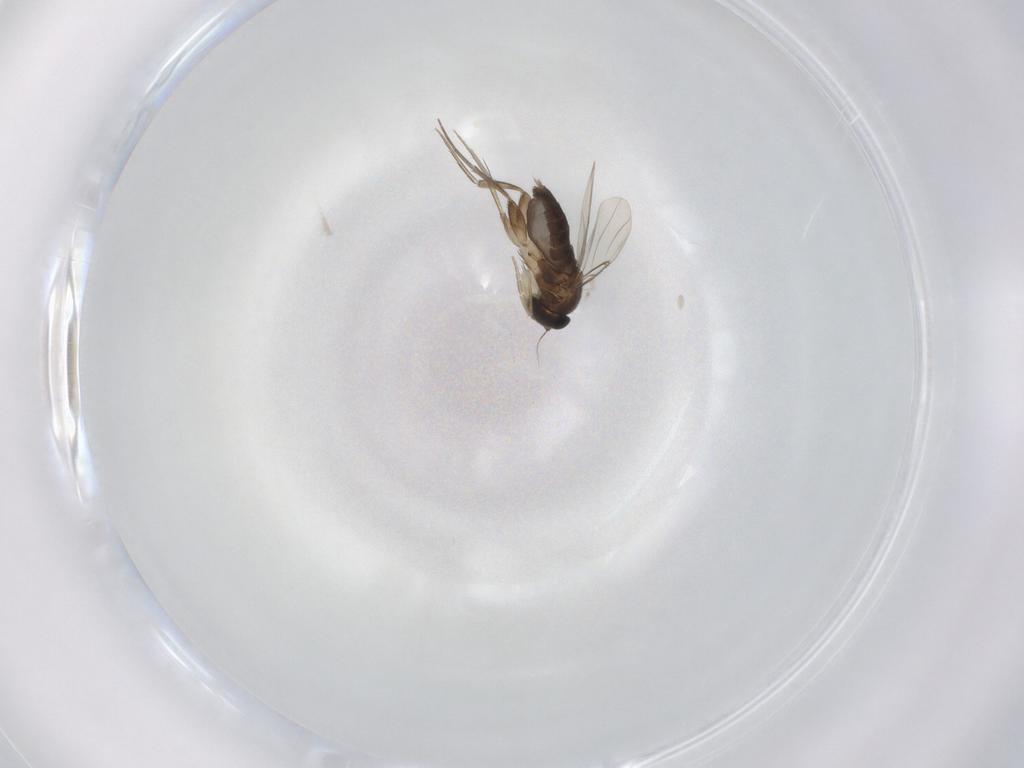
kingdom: Animalia
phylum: Arthropoda
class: Insecta
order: Diptera
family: Phoridae
